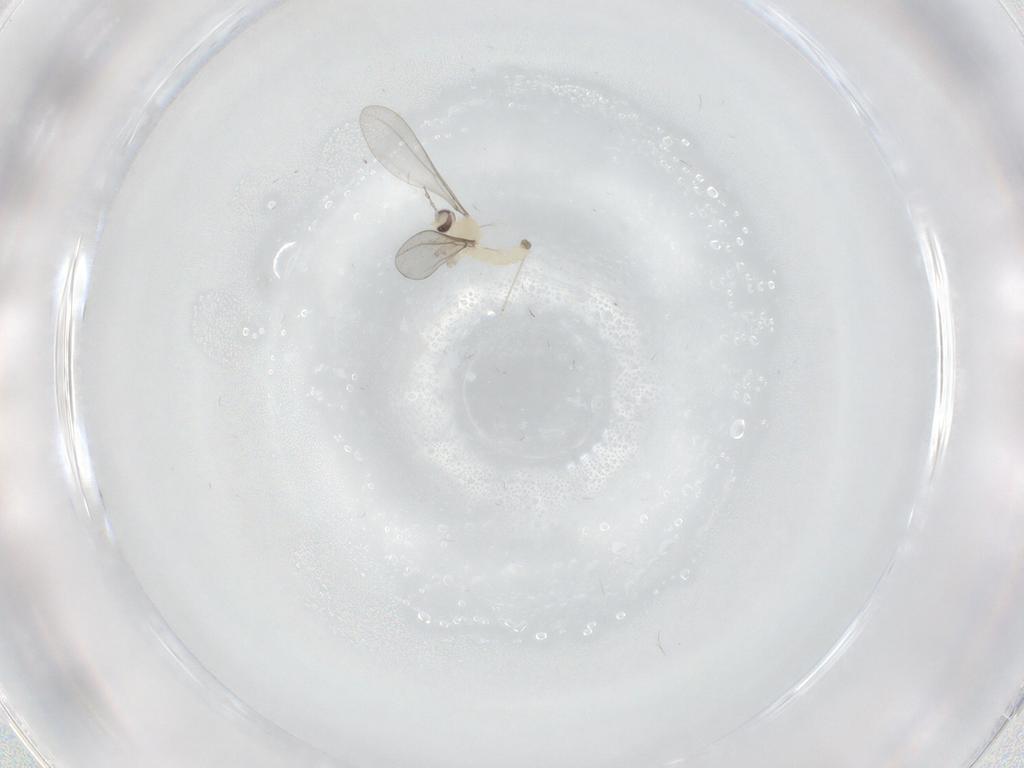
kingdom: Animalia
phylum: Arthropoda
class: Insecta
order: Diptera
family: Cecidomyiidae
